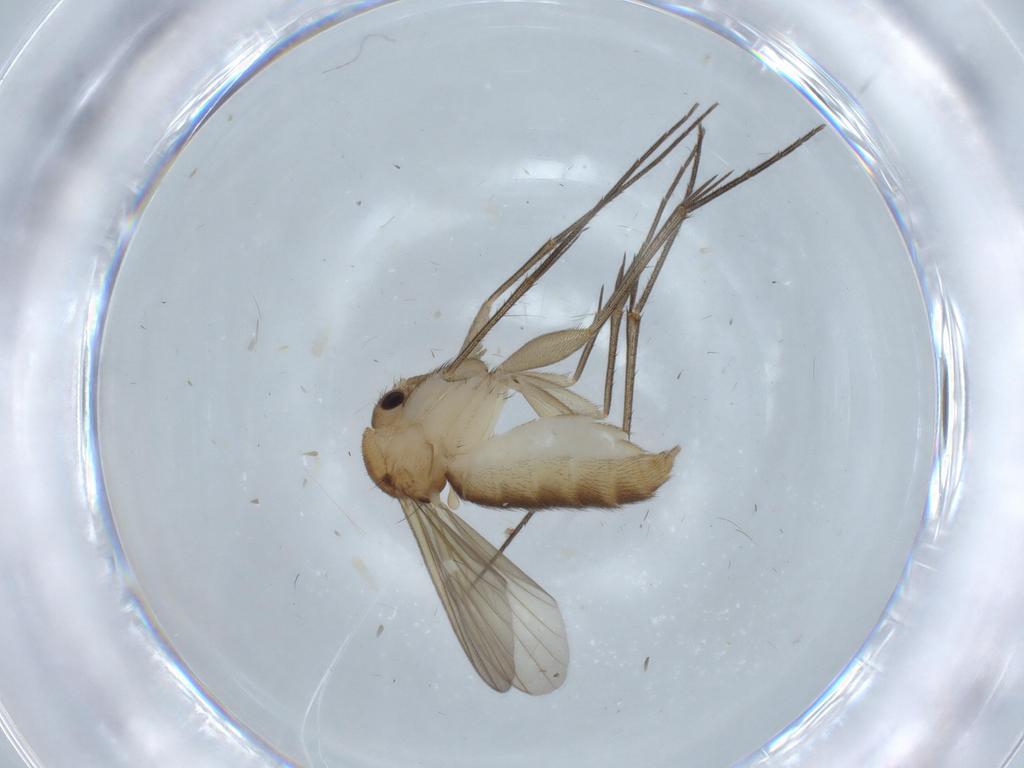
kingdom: Animalia
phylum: Arthropoda
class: Insecta
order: Diptera
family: Mycetophilidae
